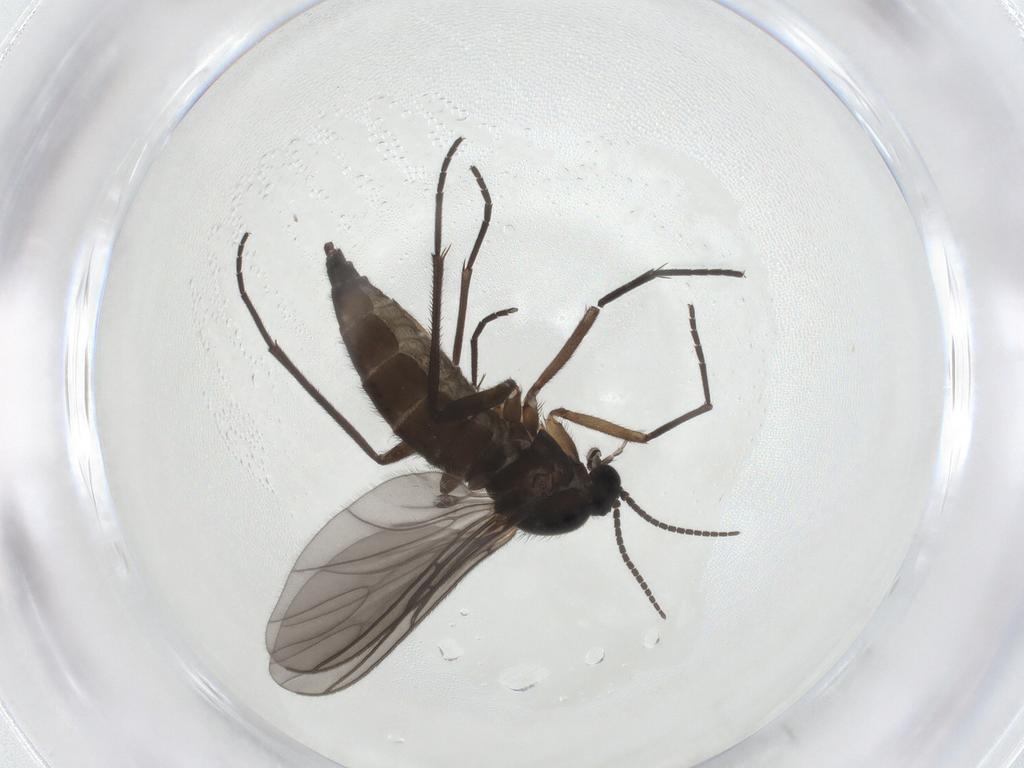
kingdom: Animalia
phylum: Arthropoda
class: Insecta
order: Diptera
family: Sciaridae
